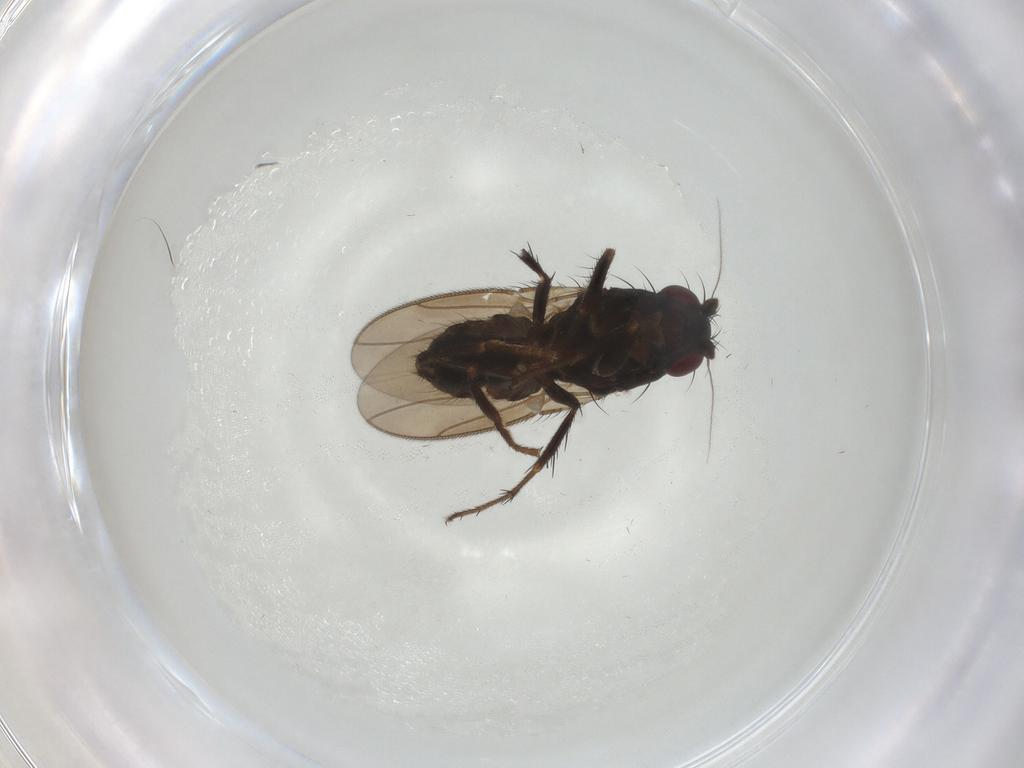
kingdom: Animalia
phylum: Arthropoda
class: Insecta
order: Diptera
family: Sphaeroceridae
